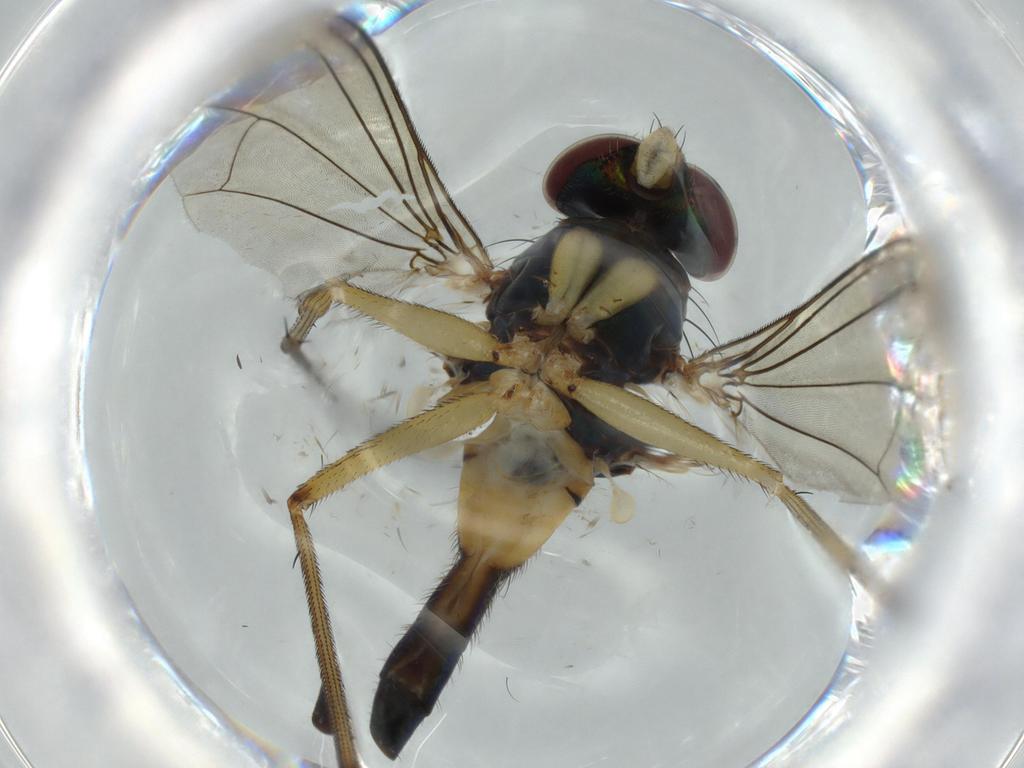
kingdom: Animalia
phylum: Arthropoda
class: Insecta
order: Diptera
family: Dolichopodidae
